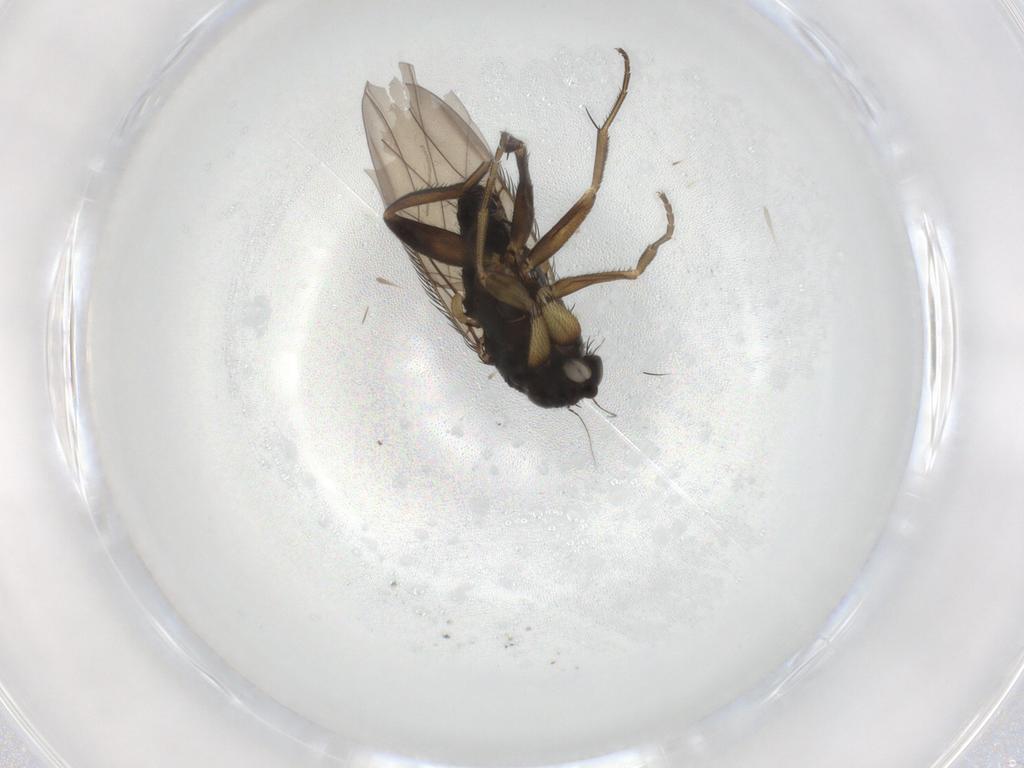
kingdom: Animalia
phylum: Arthropoda
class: Insecta
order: Diptera
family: Phoridae
